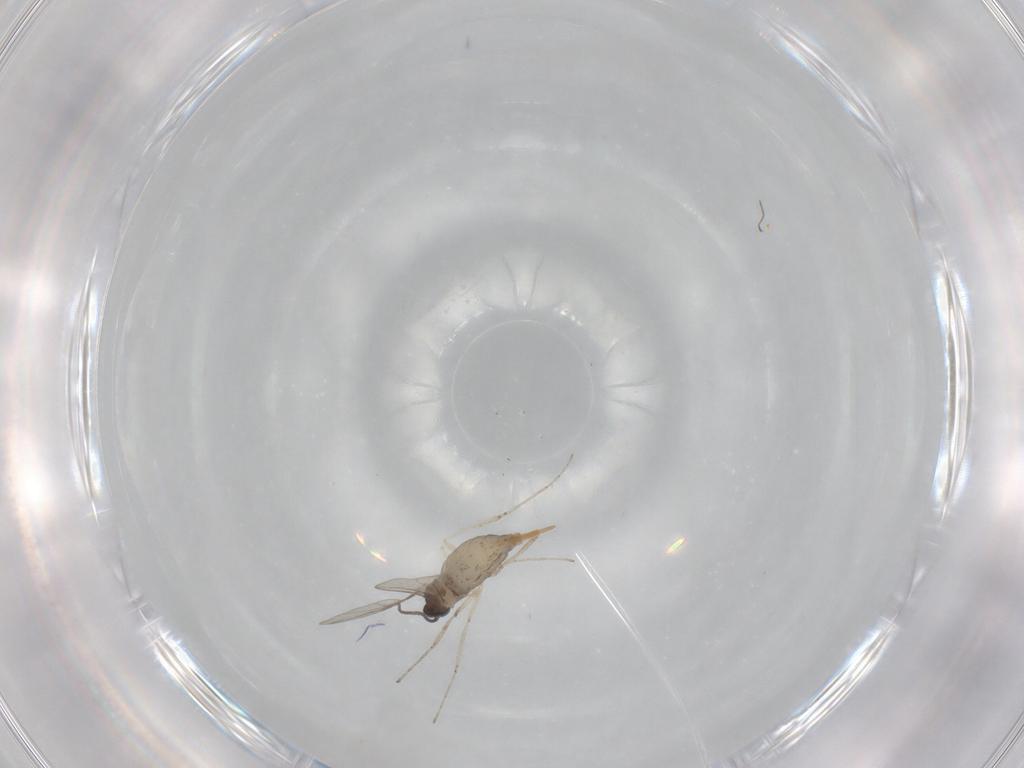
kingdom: Animalia
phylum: Arthropoda
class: Insecta
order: Diptera
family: Cecidomyiidae
